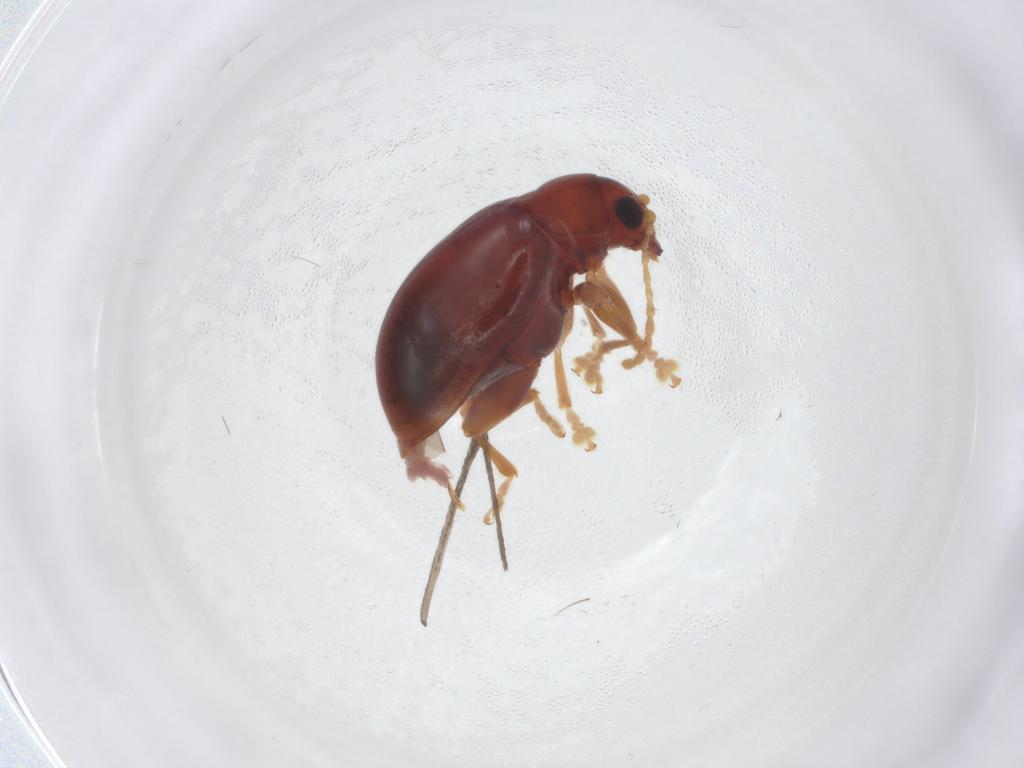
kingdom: Animalia
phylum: Arthropoda
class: Insecta
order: Coleoptera
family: Chrysomelidae
